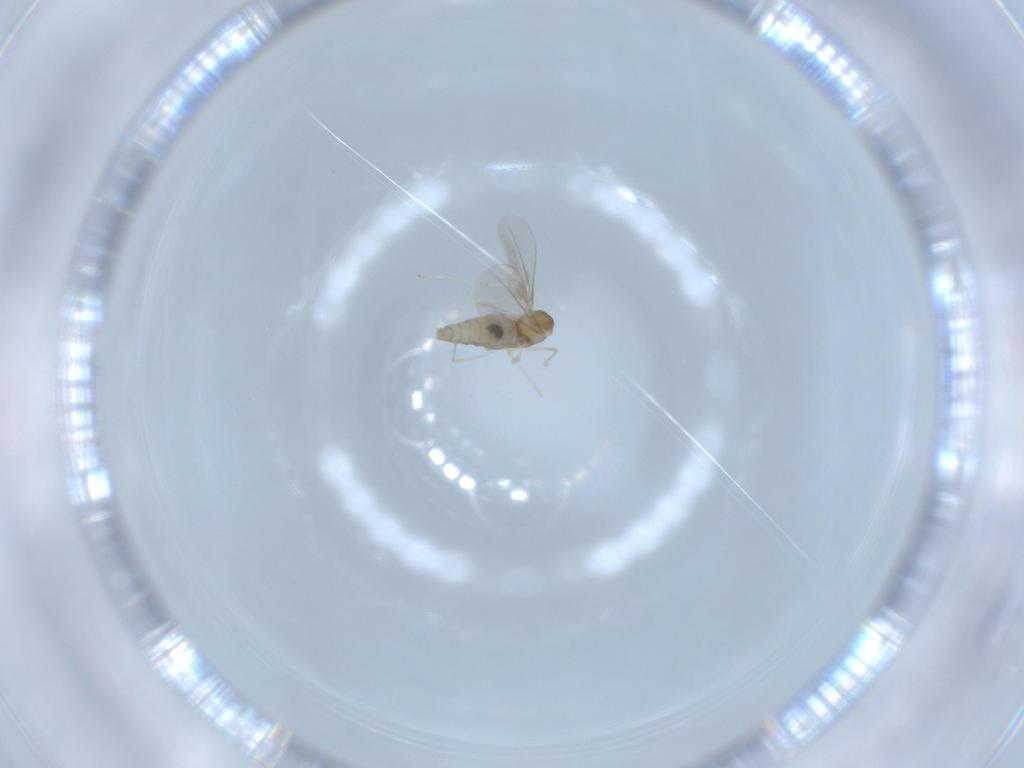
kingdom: Animalia
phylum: Arthropoda
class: Insecta
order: Diptera
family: Cecidomyiidae
